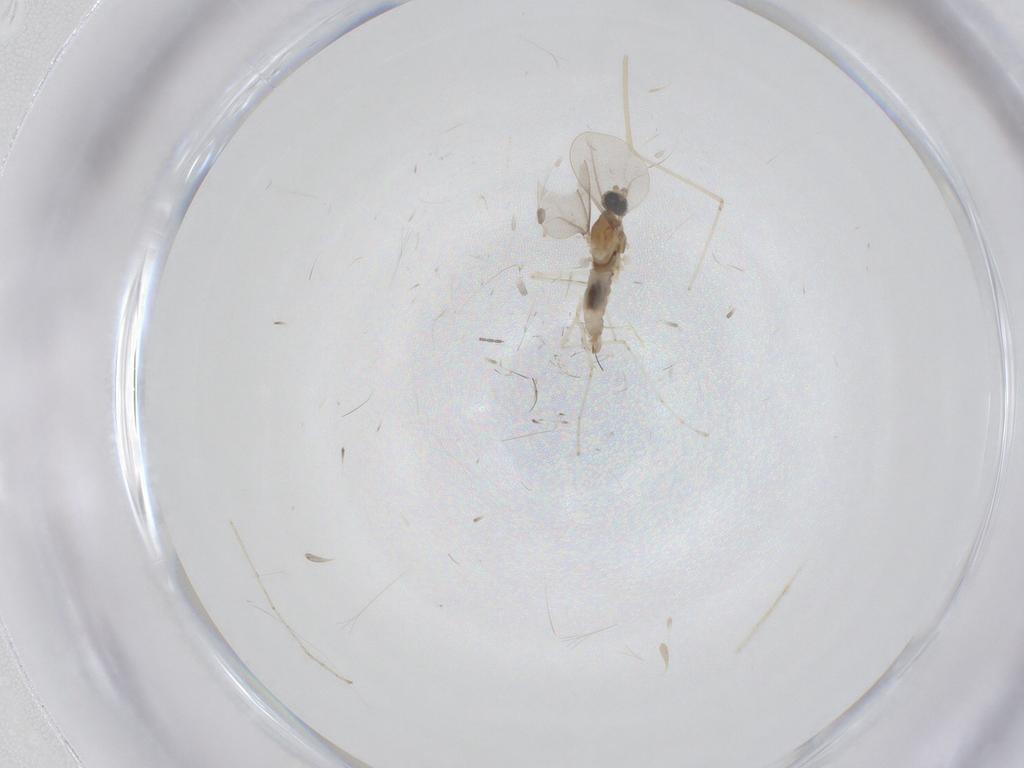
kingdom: Animalia
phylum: Arthropoda
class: Insecta
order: Diptera
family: Cecidomyiidae
